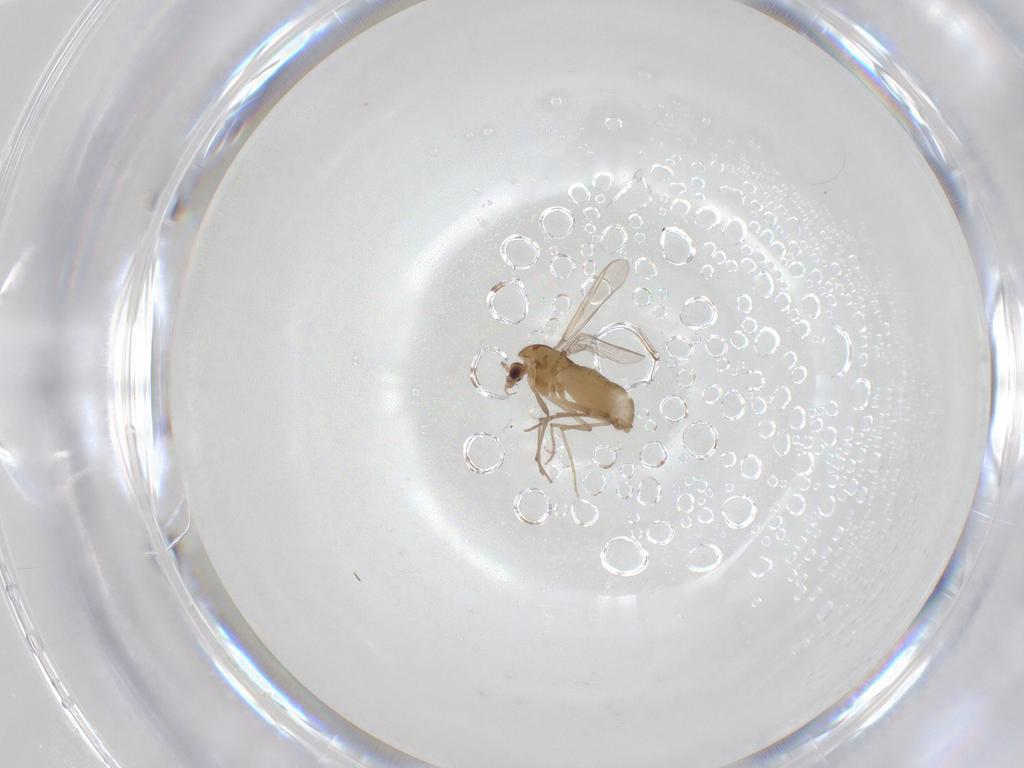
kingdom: Animalia
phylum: Arthropoda
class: Insecta
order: Diptera
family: Chironomidae
